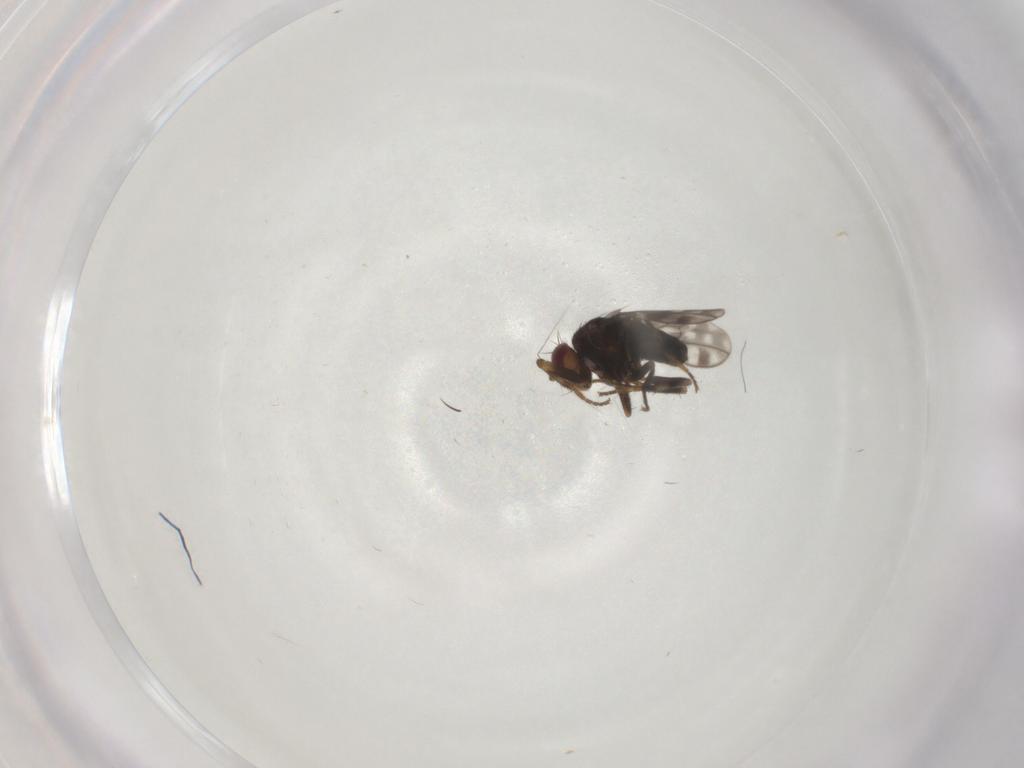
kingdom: Animalia
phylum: Arthropoda
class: Insecta
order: Diptera
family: Sphaeroceridae
